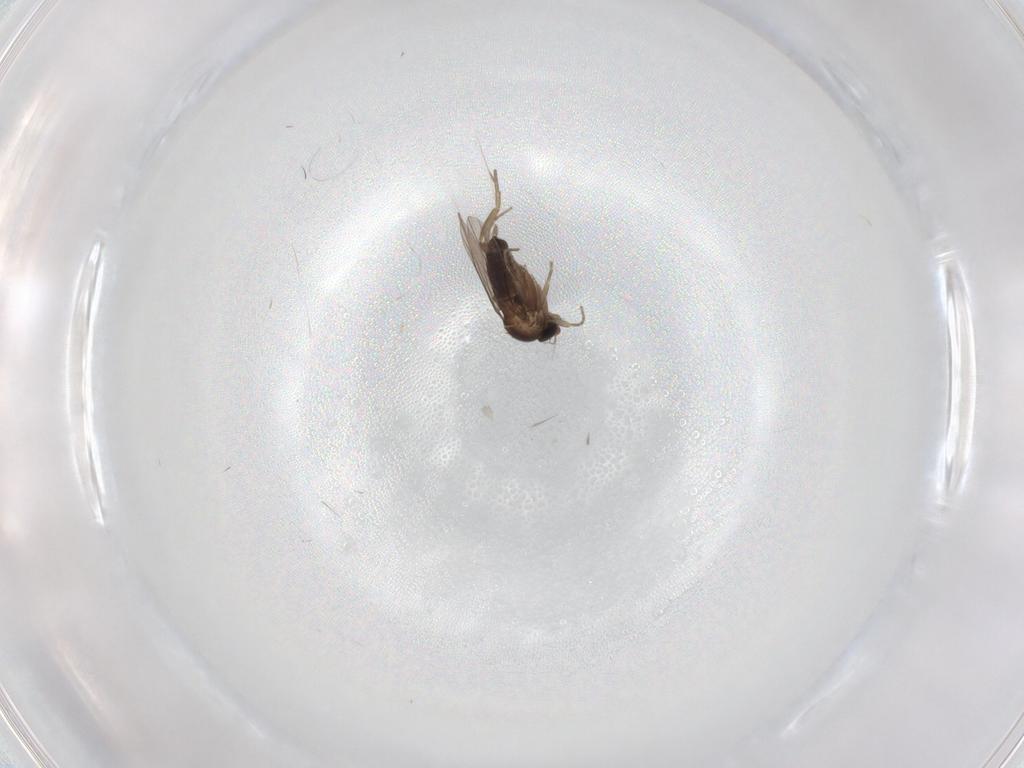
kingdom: Animalia
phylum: Arthropoda
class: Insecta
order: Diptera
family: Phoridae
